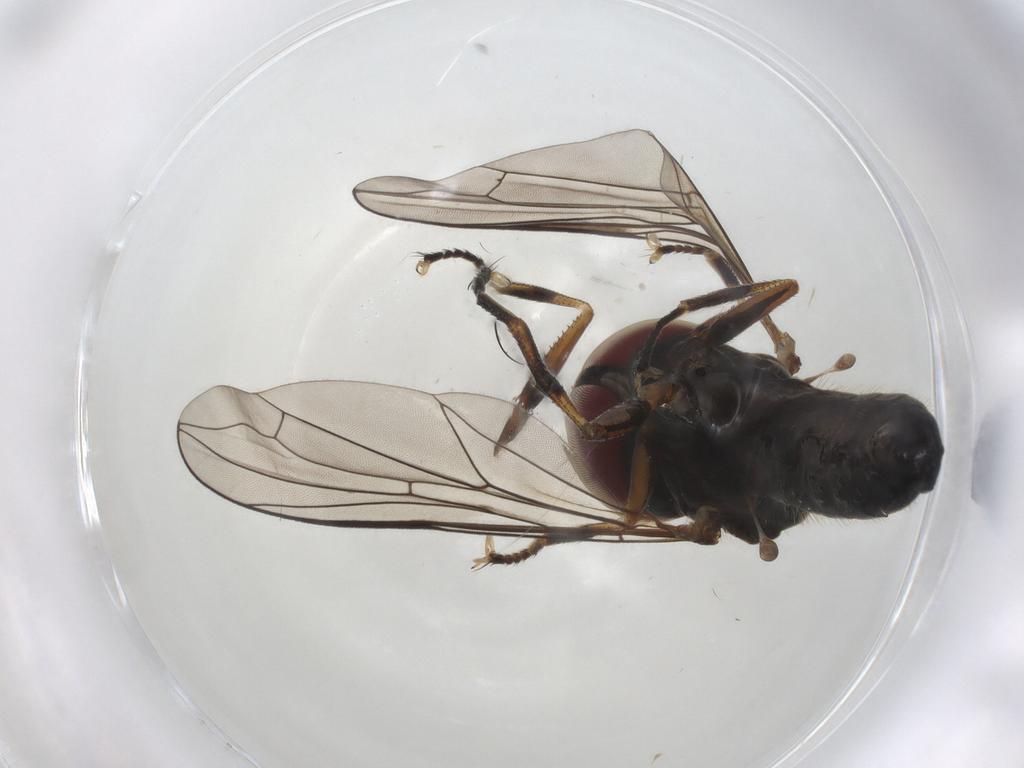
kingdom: Animalia
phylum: Arthropoda
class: Insecta
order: Diptera
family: Pipunculidae
